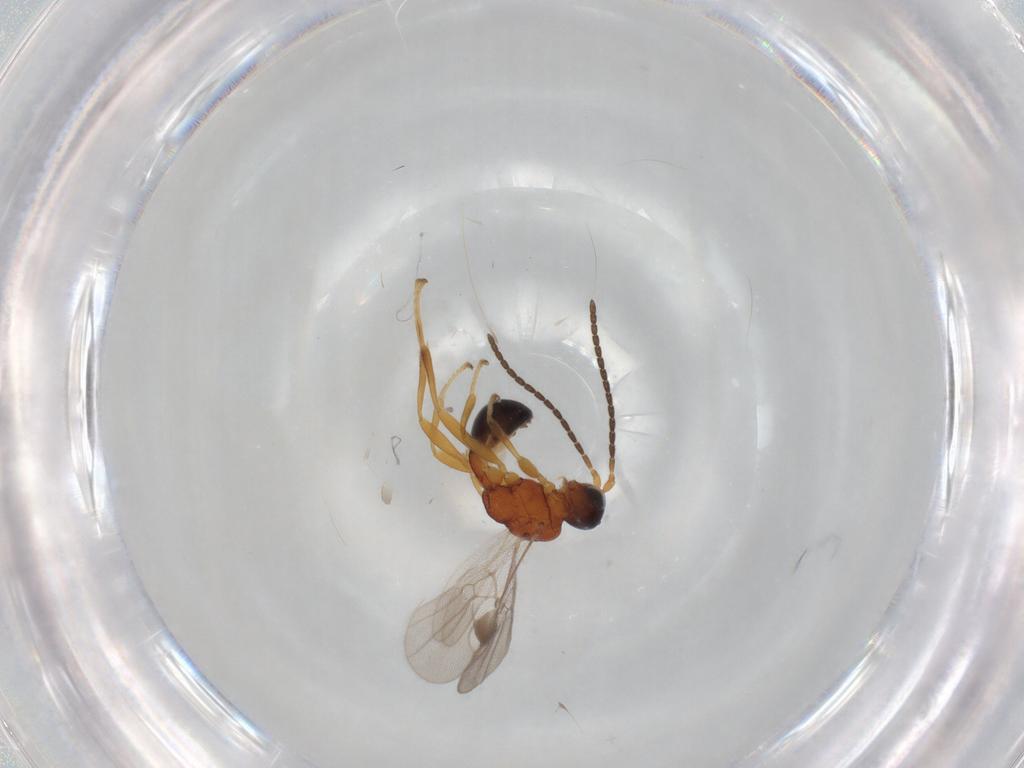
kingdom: Animalia
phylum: Arthropoda
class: Insecta
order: Hymenoptera
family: Braconidae
